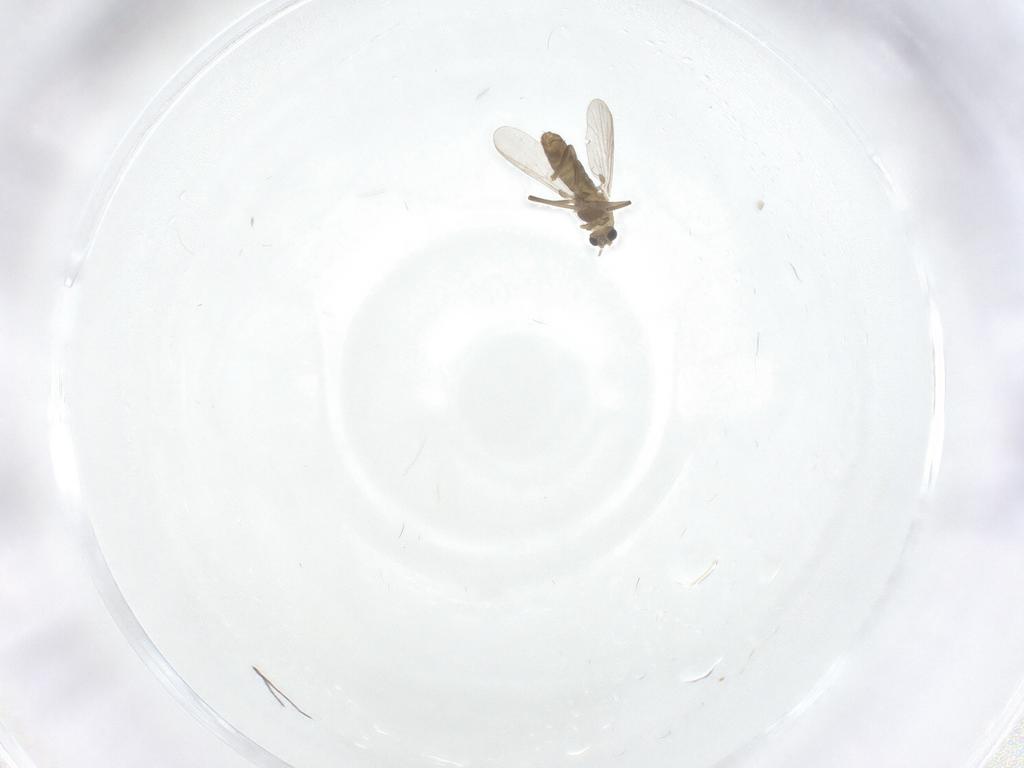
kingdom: Animalia
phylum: Arthropoda
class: Insecta
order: Diptera
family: Chironomidae
